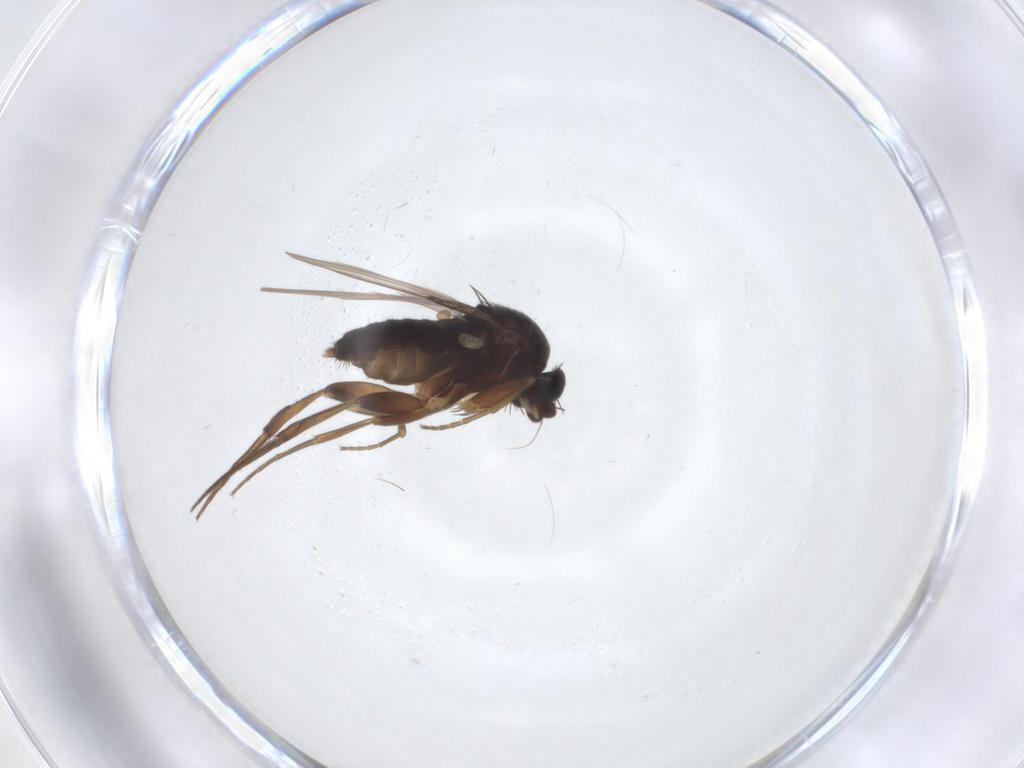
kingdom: Animalia
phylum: Arthropoda
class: Insecta
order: Diptera
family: Phoridae
